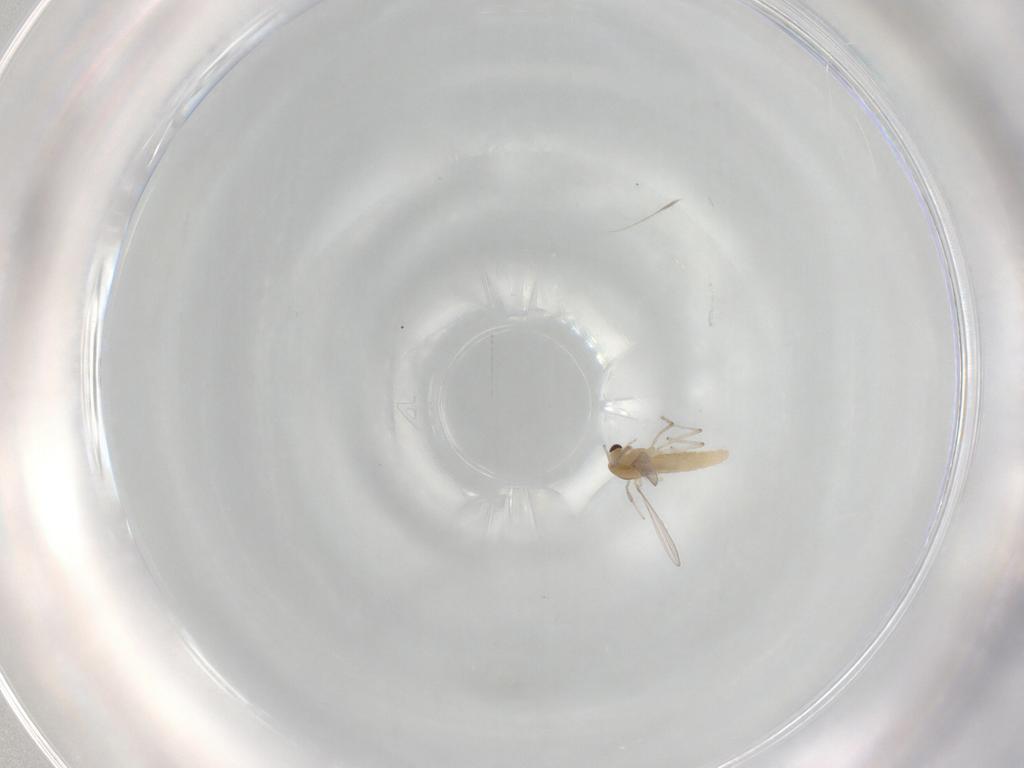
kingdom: Animalia
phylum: Arthropoda
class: Insecta
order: Diptera
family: Chironomidae
